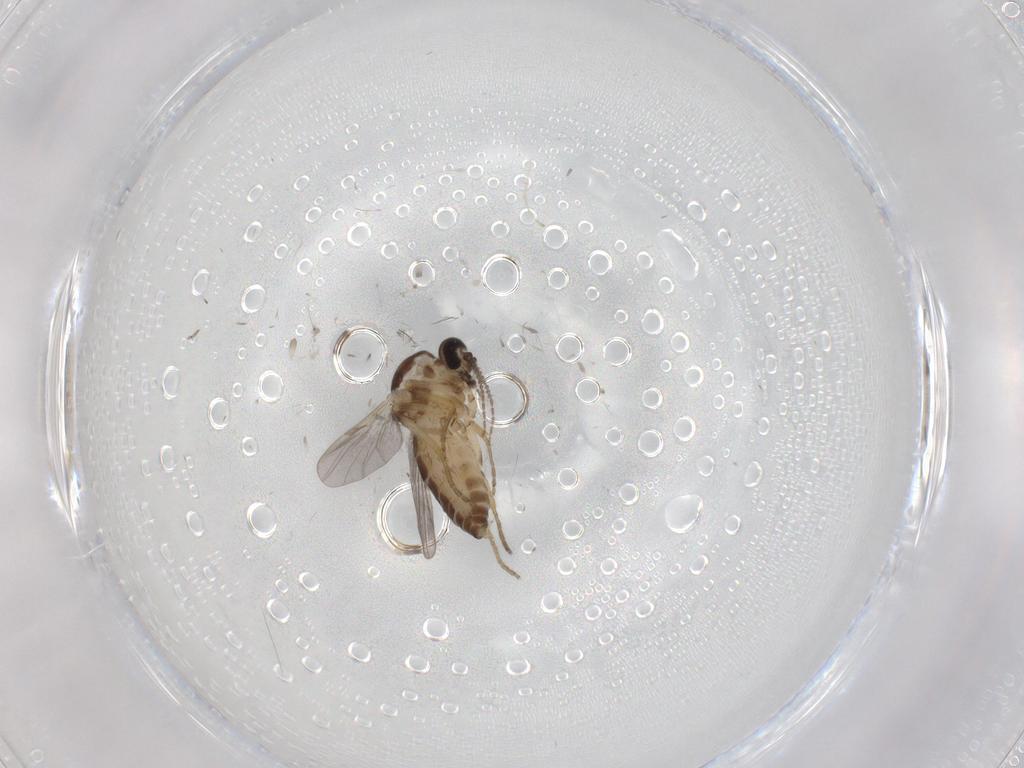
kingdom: Animalia
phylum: Arthropoda
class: Insecta
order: Diptera
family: Ceratopogonidae
